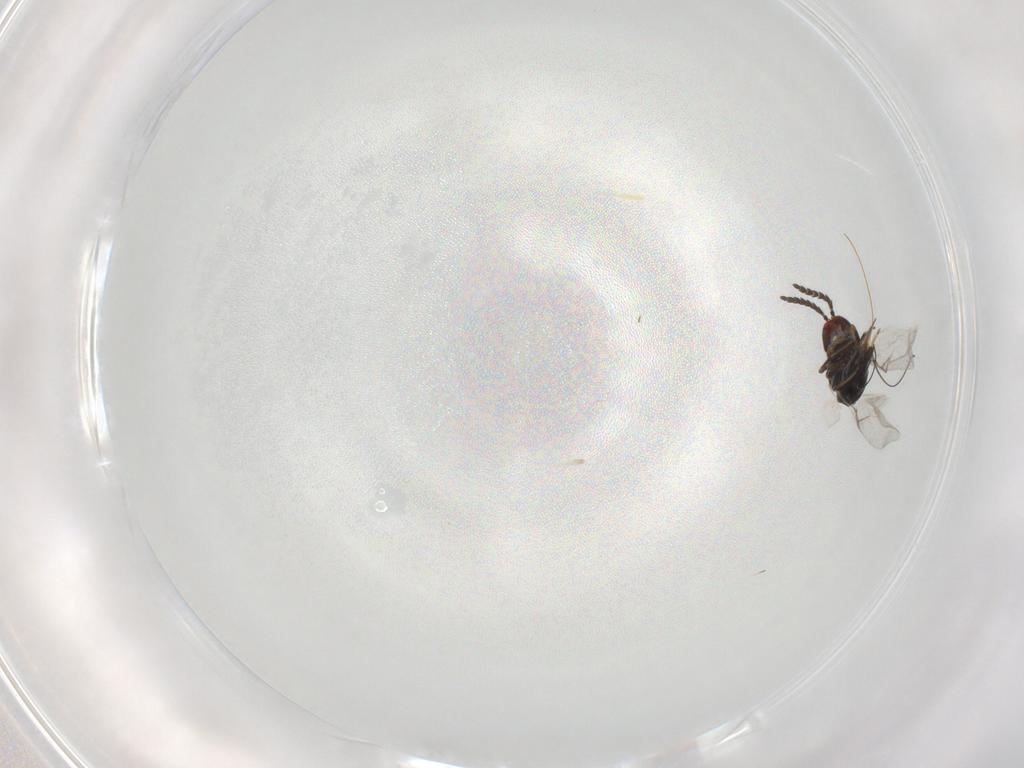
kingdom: Animalia
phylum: Arthropoda
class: Insecta
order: Hymenoptera
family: Agaonidae
